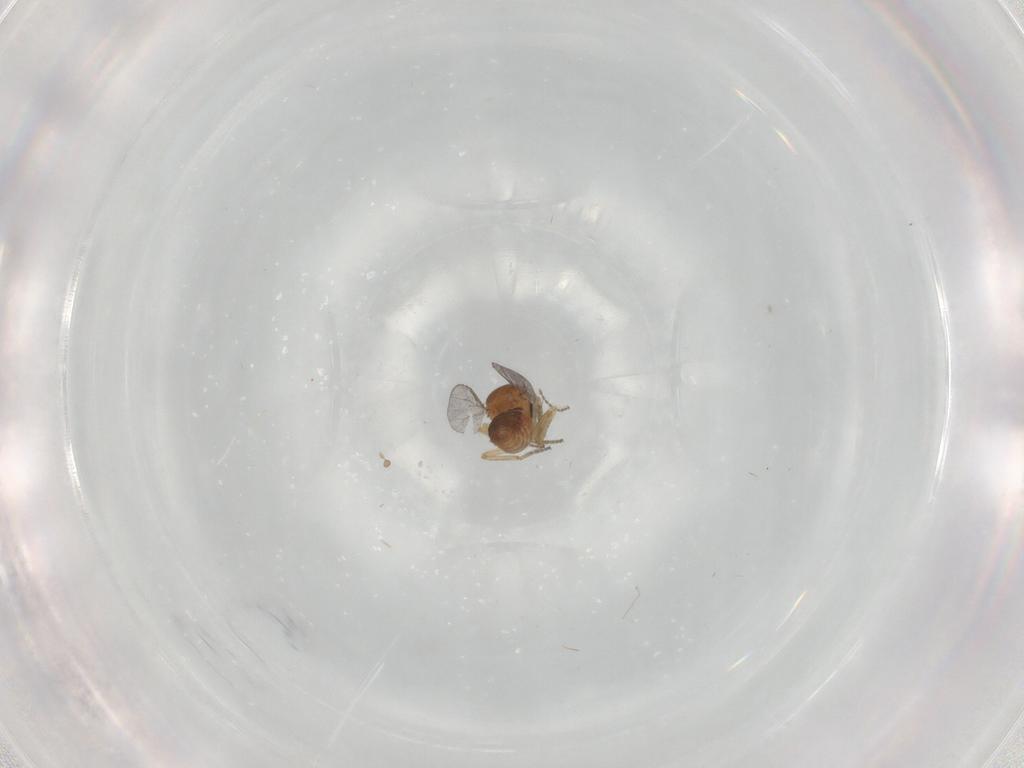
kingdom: Animalia
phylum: Arthropoda
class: Insecta
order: Diptera
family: Ceratopogonidae
